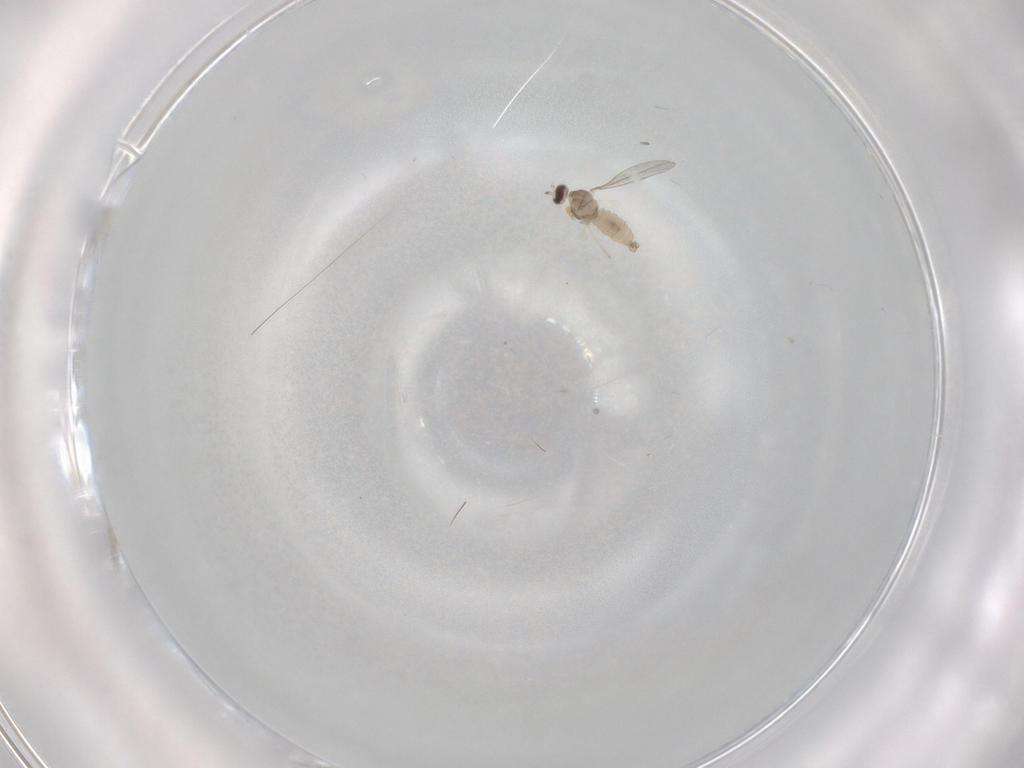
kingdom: Animalia
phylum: Arthropoda
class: Insecta
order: Diptera
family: Cecidomyiidae
